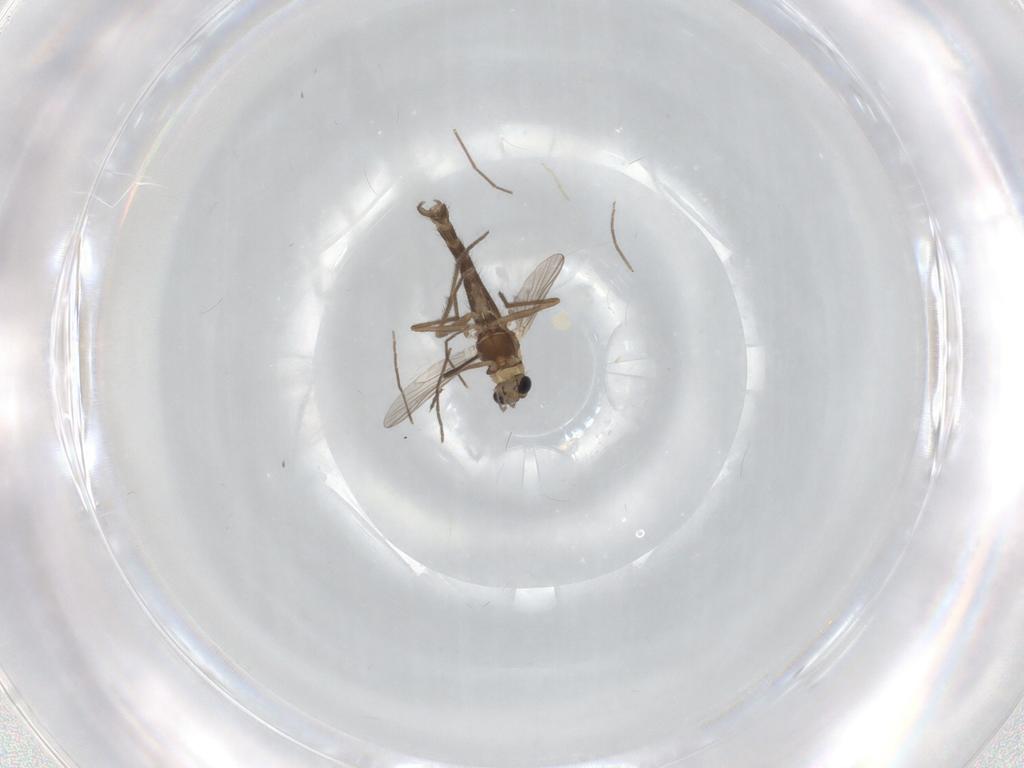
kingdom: Animalia
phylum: Arthropoda
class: Insecta
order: Diptera
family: Chironomidae
